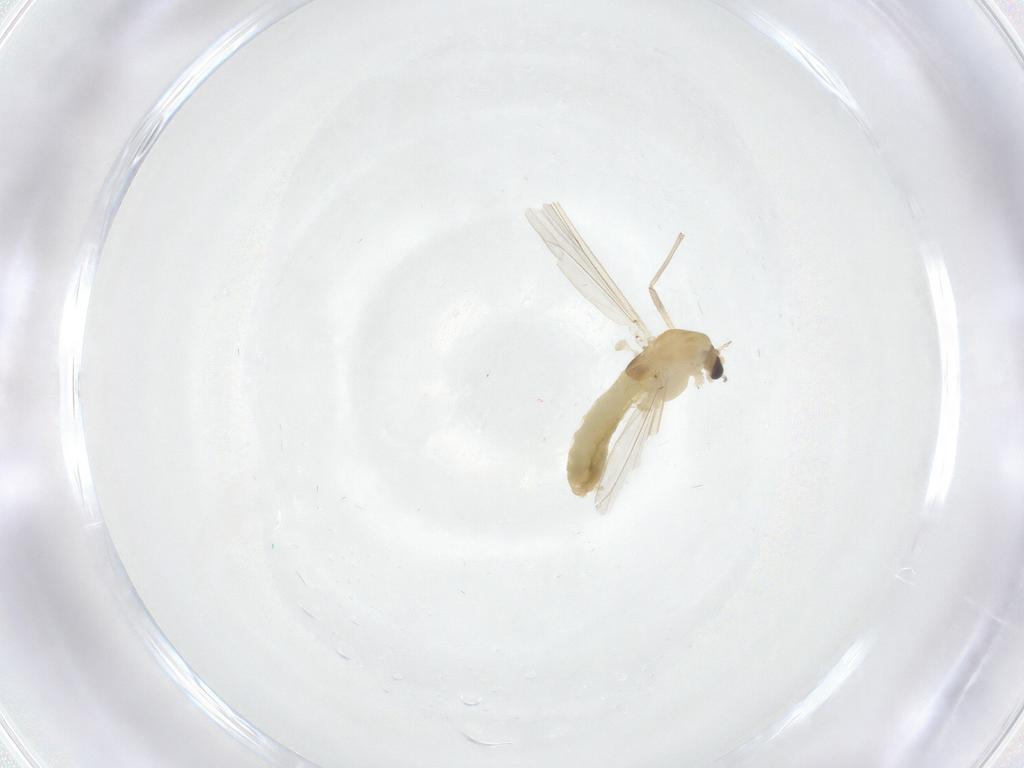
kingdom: Animalia
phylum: Arthropoda
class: Insecta
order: Diptera
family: Chironomidae
